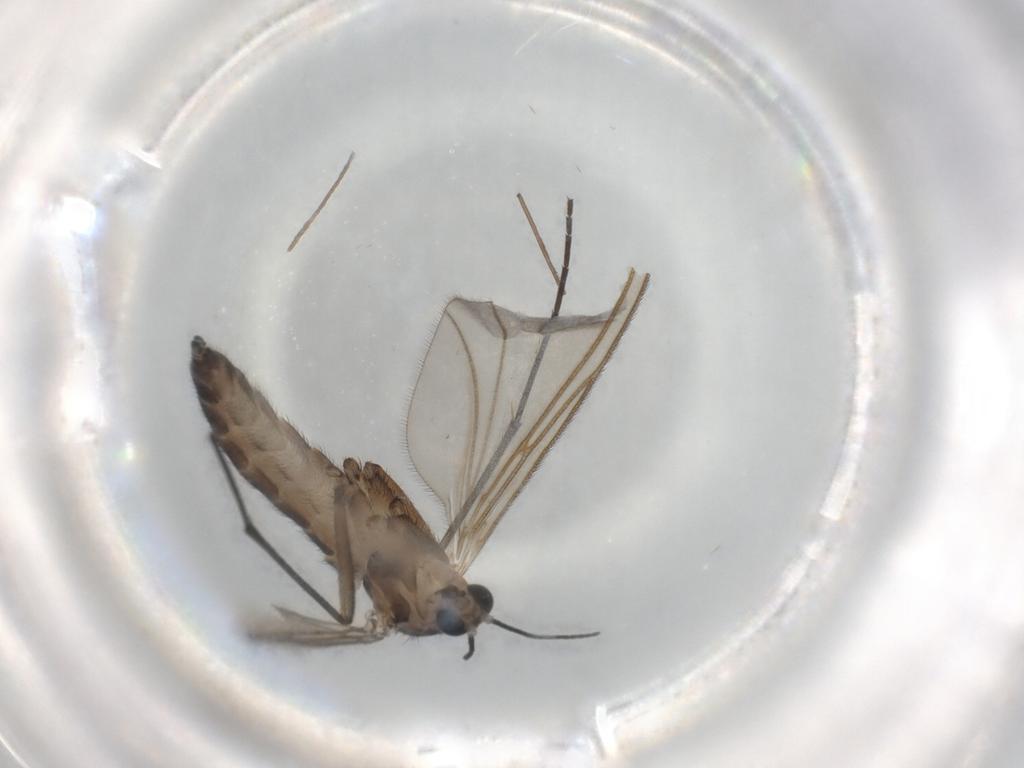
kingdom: Animalia
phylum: Arthropoda
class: Insecta
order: Diptera
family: Sciaridae
